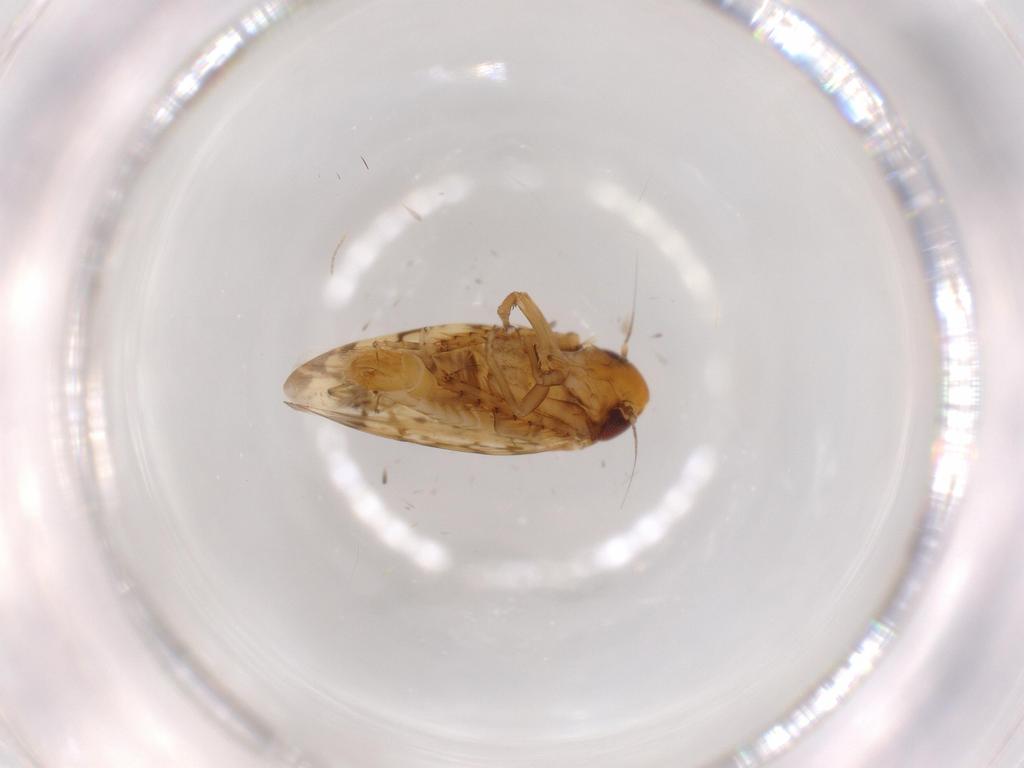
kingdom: Animalia
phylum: Arthropoda
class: Insecta
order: Hemiptera
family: Cicadellidae
